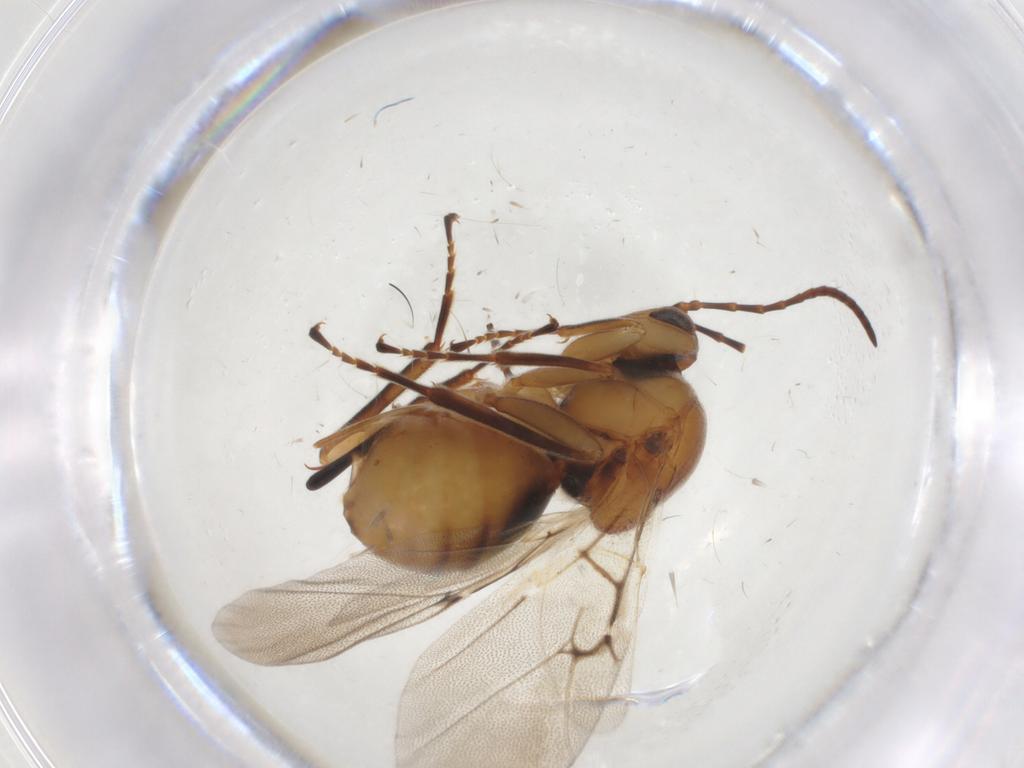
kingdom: Animalia
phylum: Arthropoda
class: Insecta
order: Hymenoptera
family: Cynipidae
